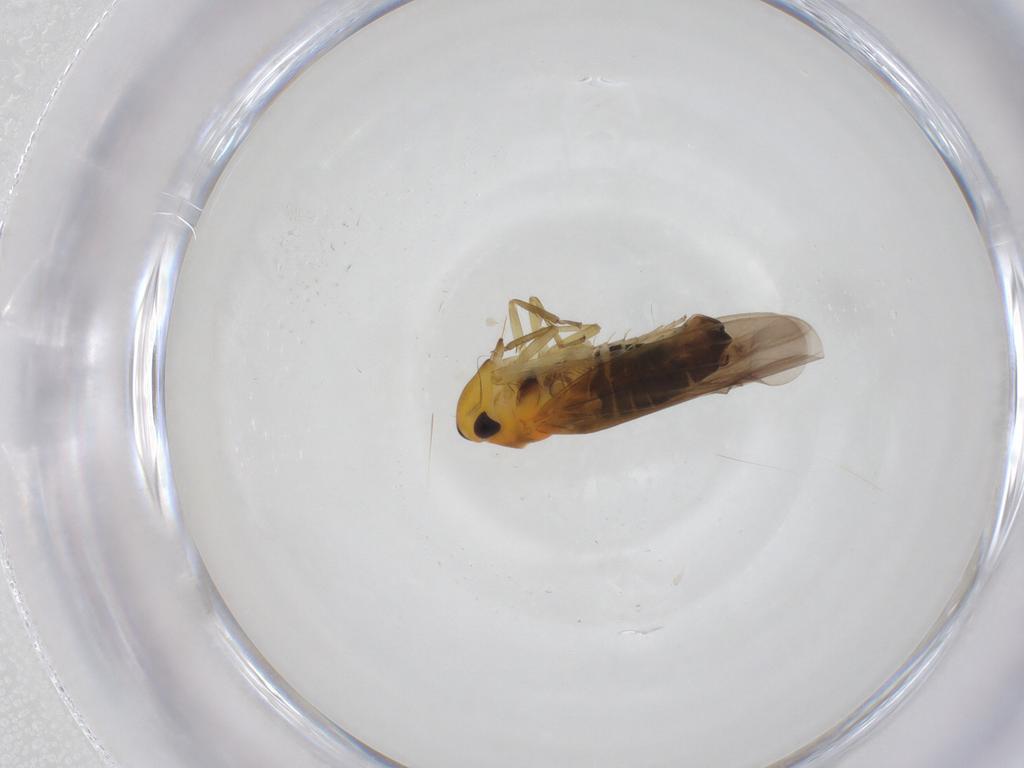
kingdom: Animalia
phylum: Arthropoda
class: Insecta
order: Hemiptera
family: Cicadellidae
